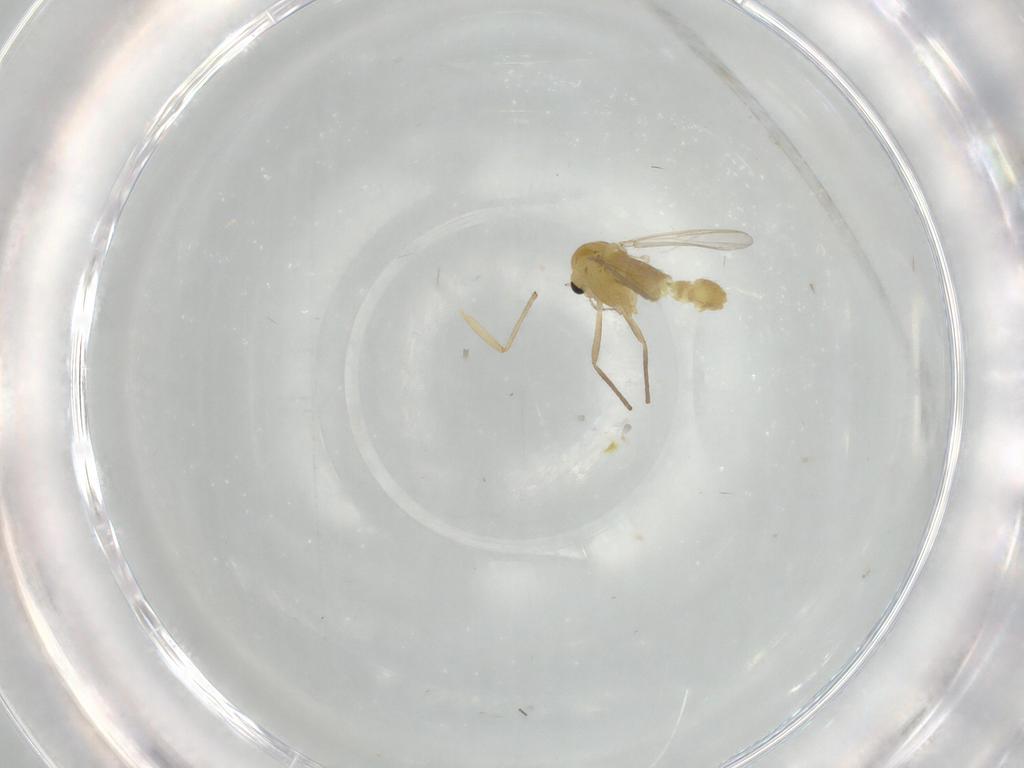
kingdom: Animalia
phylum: Arthropoda
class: Insecta
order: Diptera
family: Chironomidae
